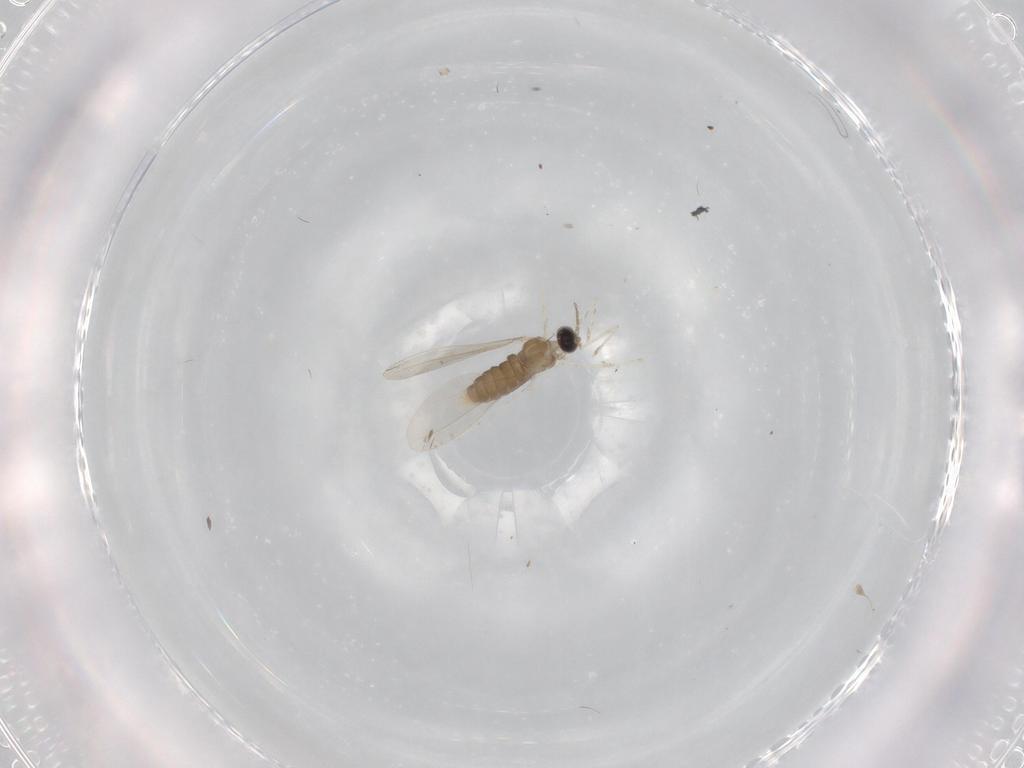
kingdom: Animalia
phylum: Arthropoda
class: Insecta
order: Diptera
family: Cecidomyiidae
